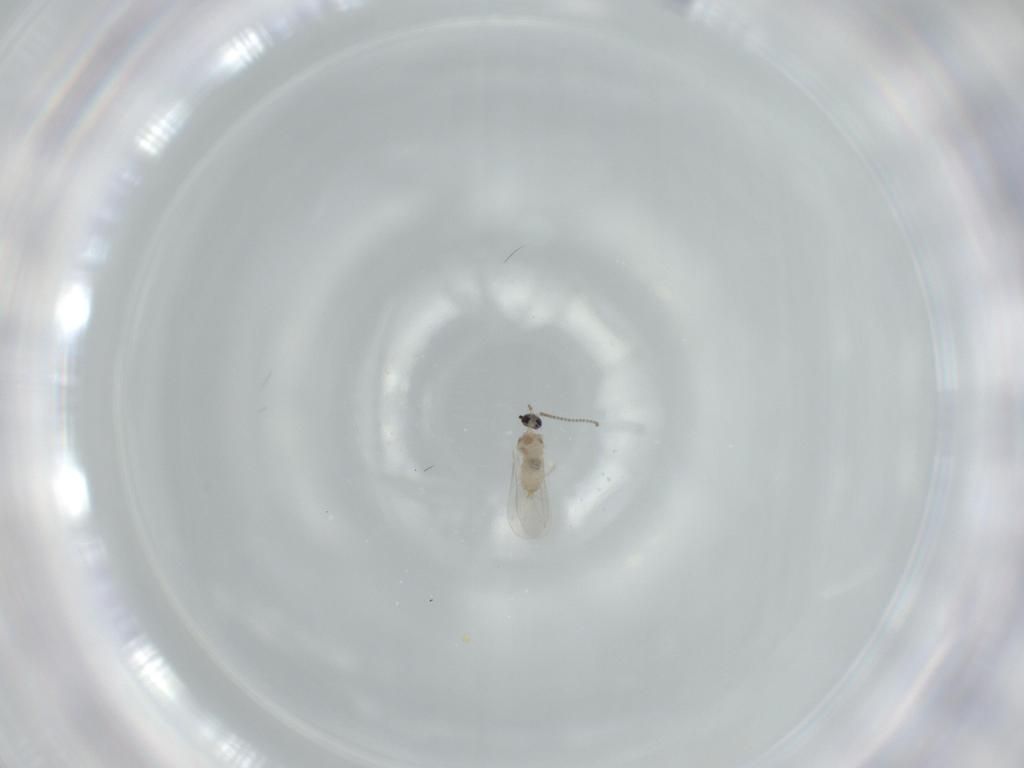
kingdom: Animalia
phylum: Arthropoda
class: Insecta
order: Diptera
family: Cecidomyiidae
